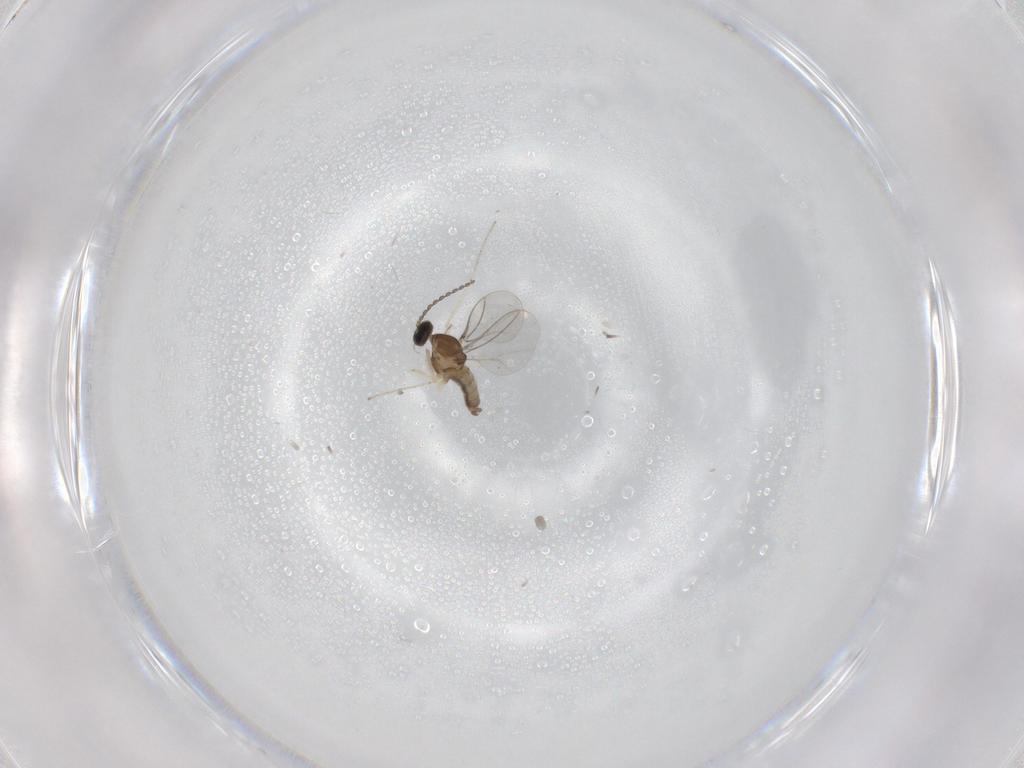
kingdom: Animalia
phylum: Arthropoda
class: Insecta
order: Diptera
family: Cecidomyiidae
